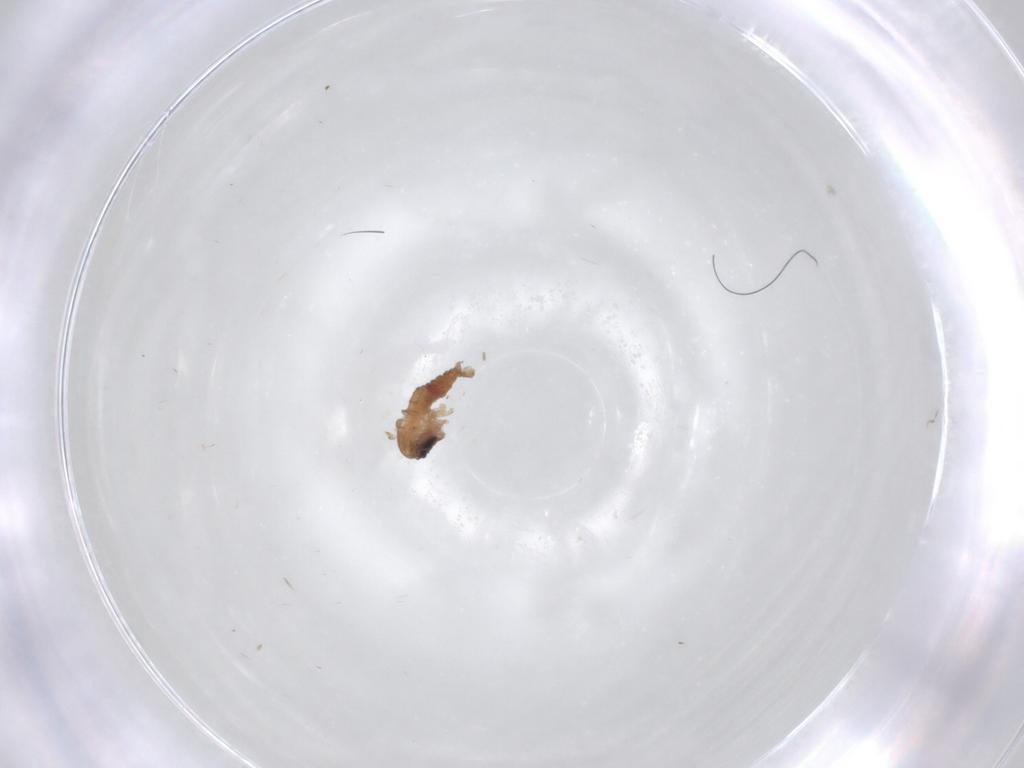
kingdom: Animalia
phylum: Arthropoda
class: Insecta
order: Diptera
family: Psychodidae
